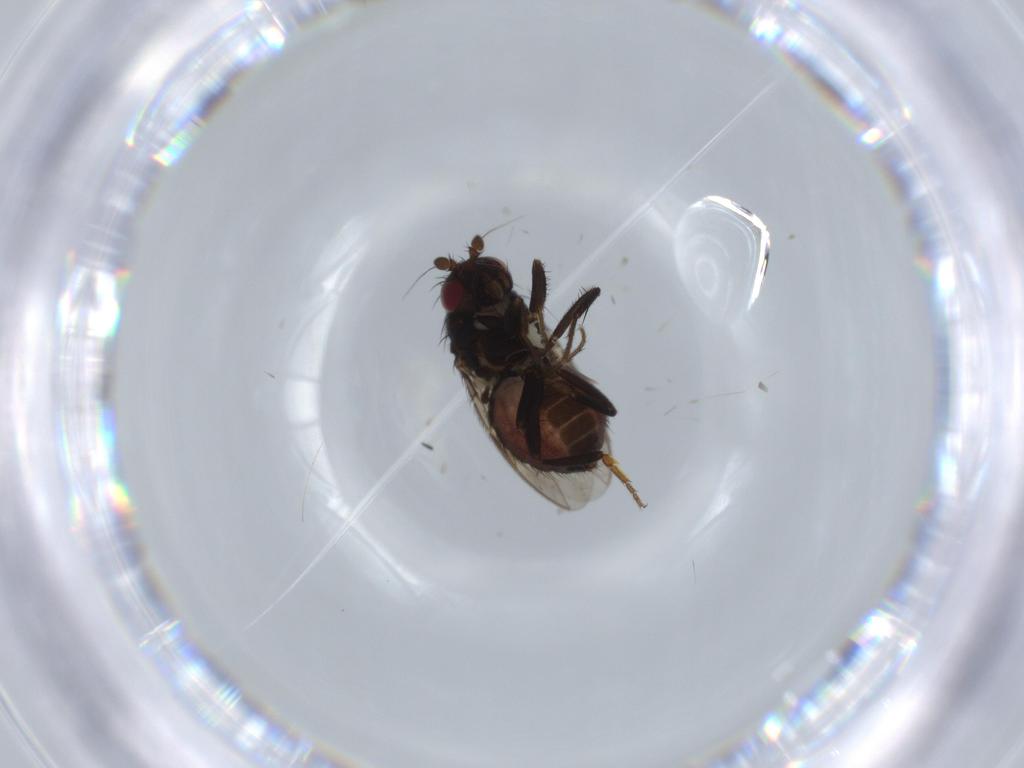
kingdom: Animalia
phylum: Arthropoda
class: Insecta
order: Diptera
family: Sphaeroceridae
